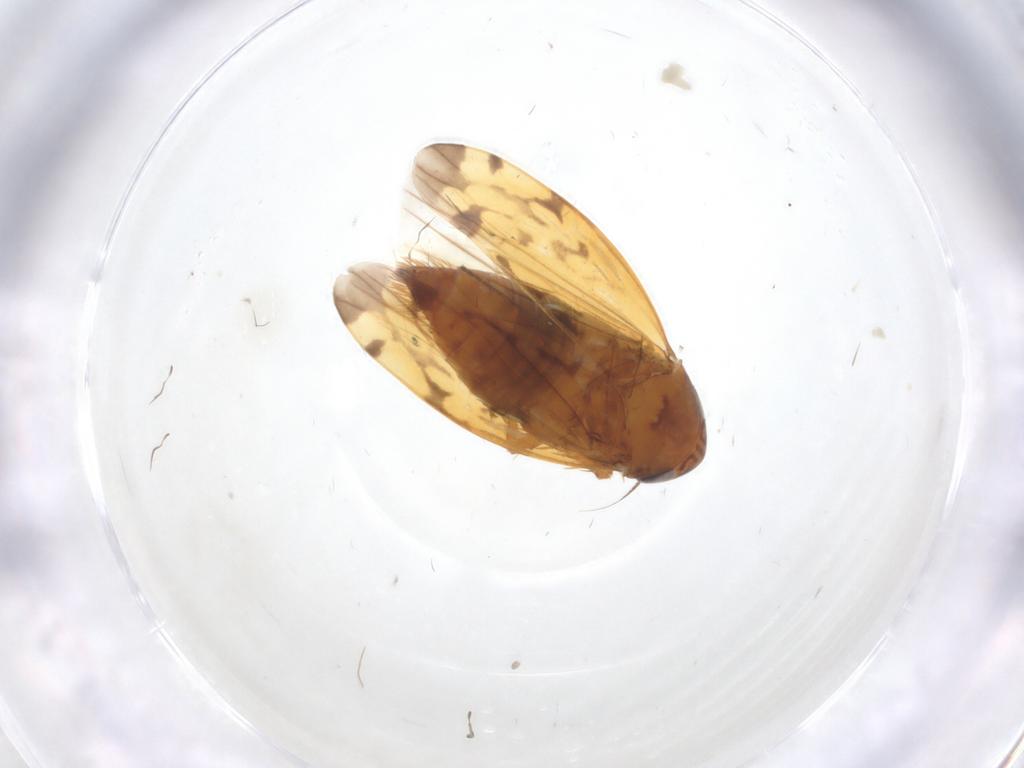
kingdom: Animalia
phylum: Arthropoda
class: Insecta
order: Hemiptera
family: Cicadellidae
